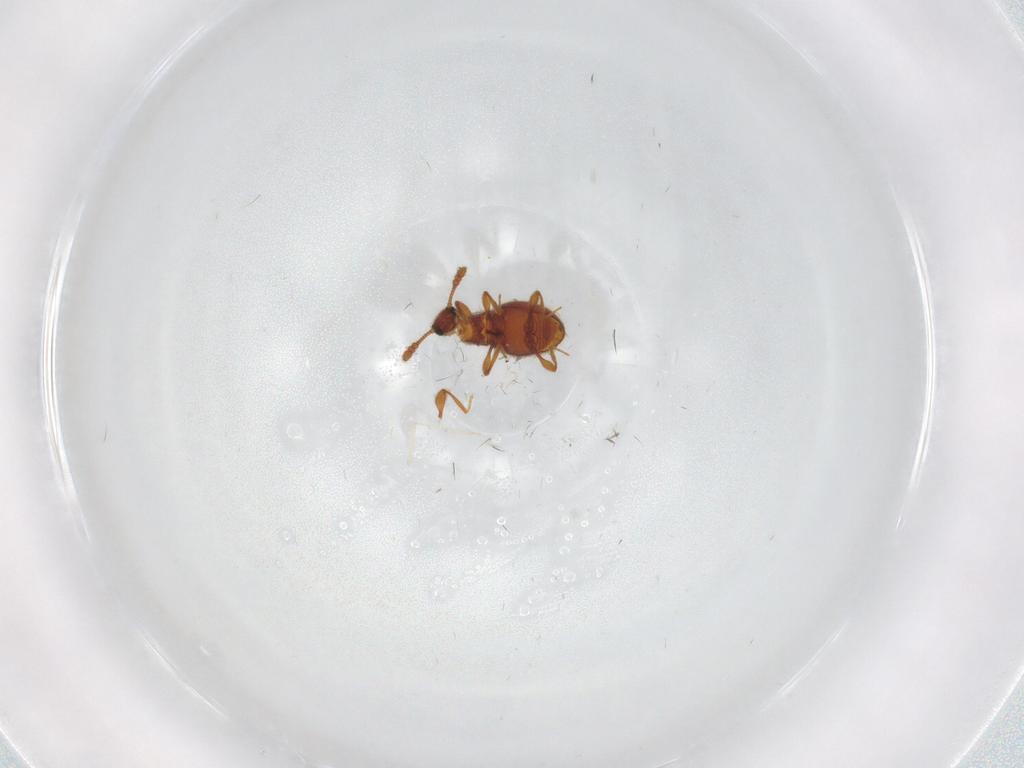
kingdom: Animalia
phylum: Arthropoda
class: Insecta
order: Coleoptera
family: Staphylinidae
